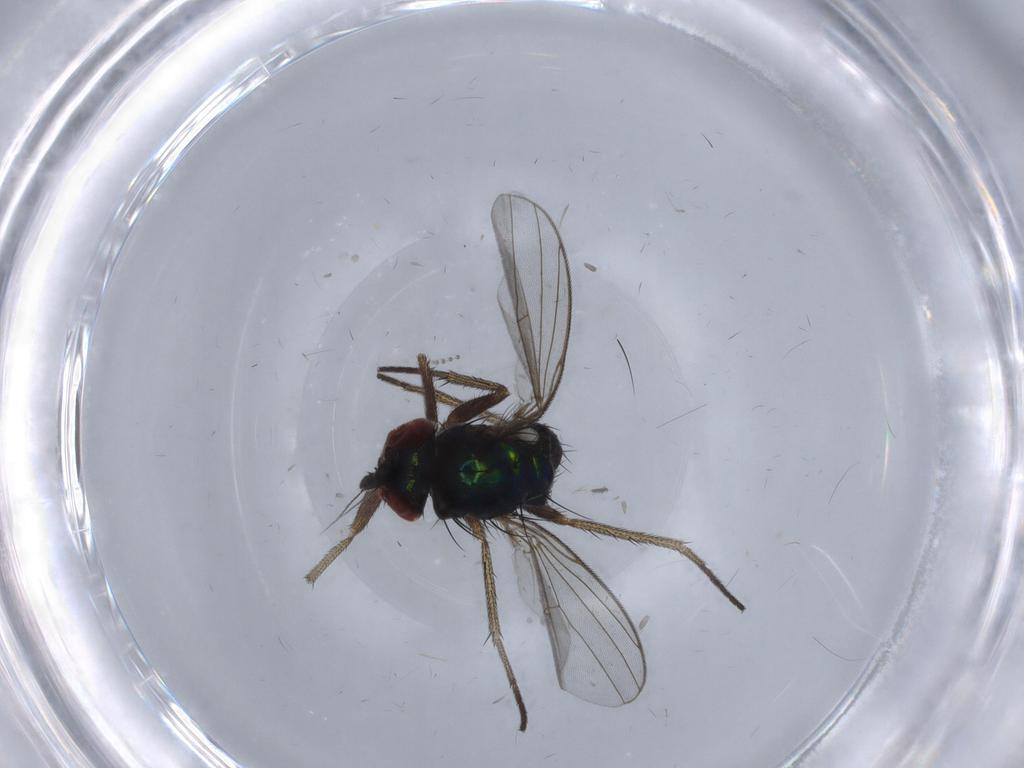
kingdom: Animalia
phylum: Arthropoda
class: Insecta
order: Diptera
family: Dolichopodidae
